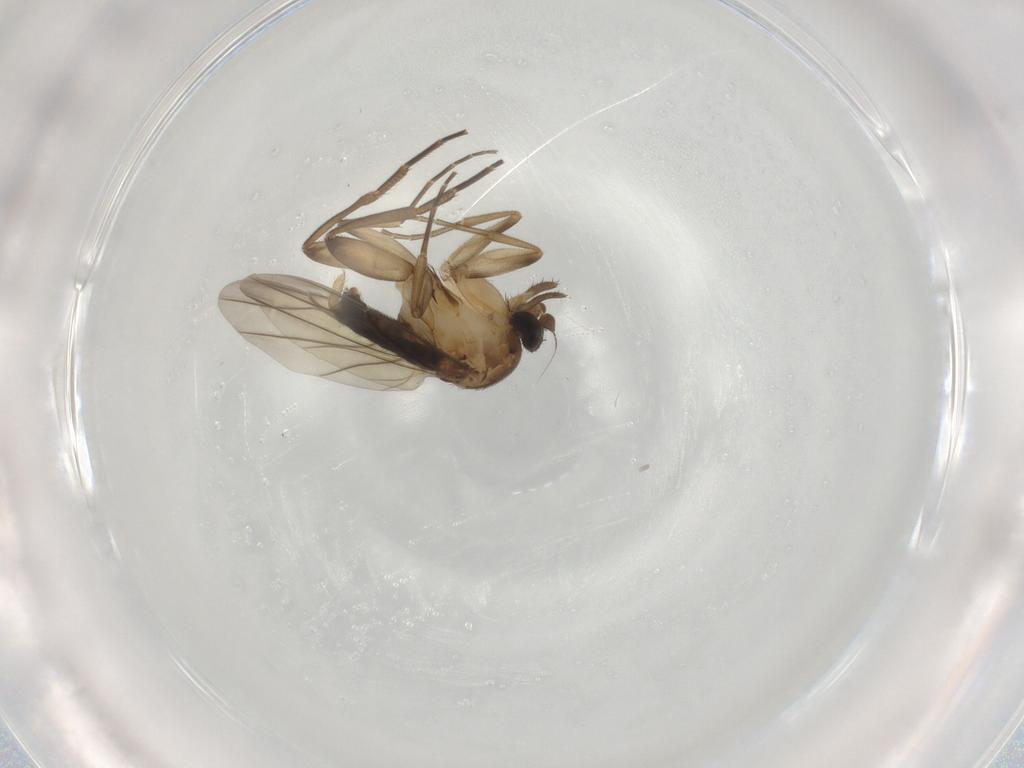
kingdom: Animalia
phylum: Arthropoda
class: Insecta
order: Diptera
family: Phoridae
